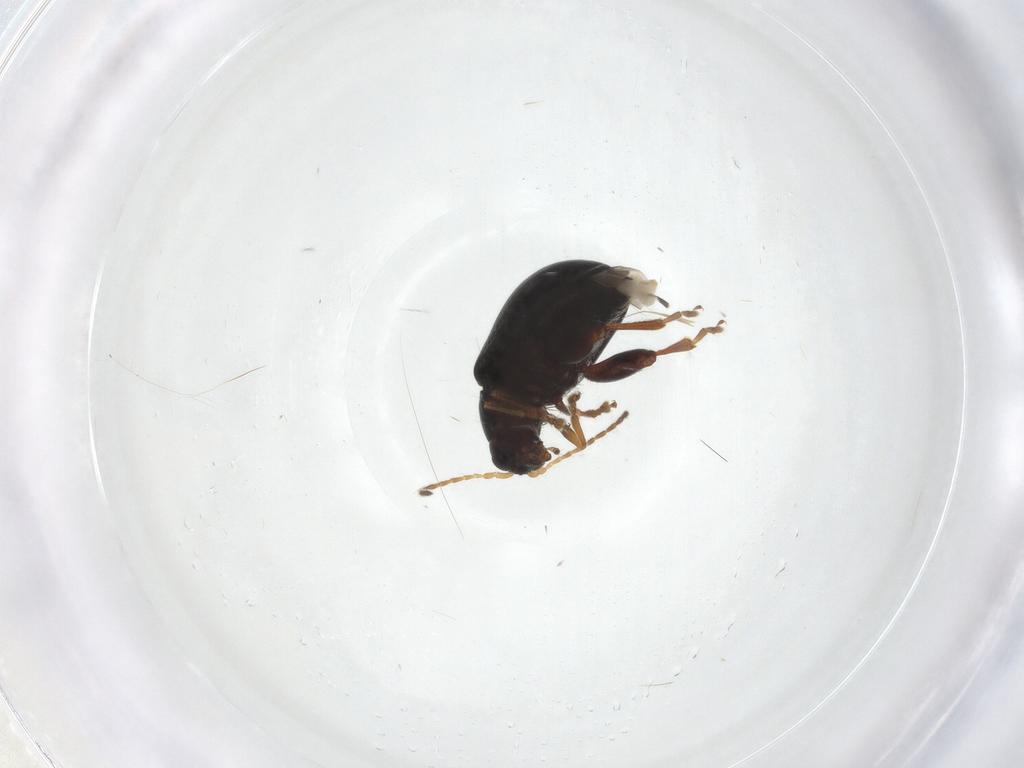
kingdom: Animalia
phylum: Arthropoda
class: Insecta
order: Coleoptera
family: Chrysomelidae
